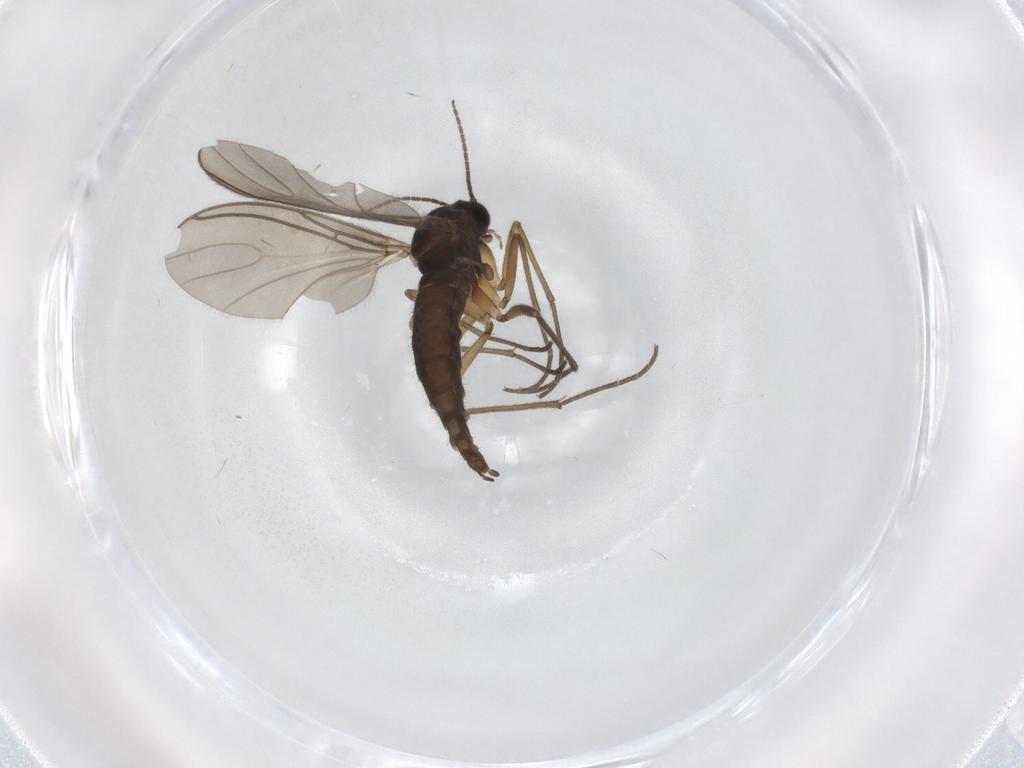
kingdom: Animalia
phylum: Arthropoda
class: Insecta
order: Diptera
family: Sciaridae
